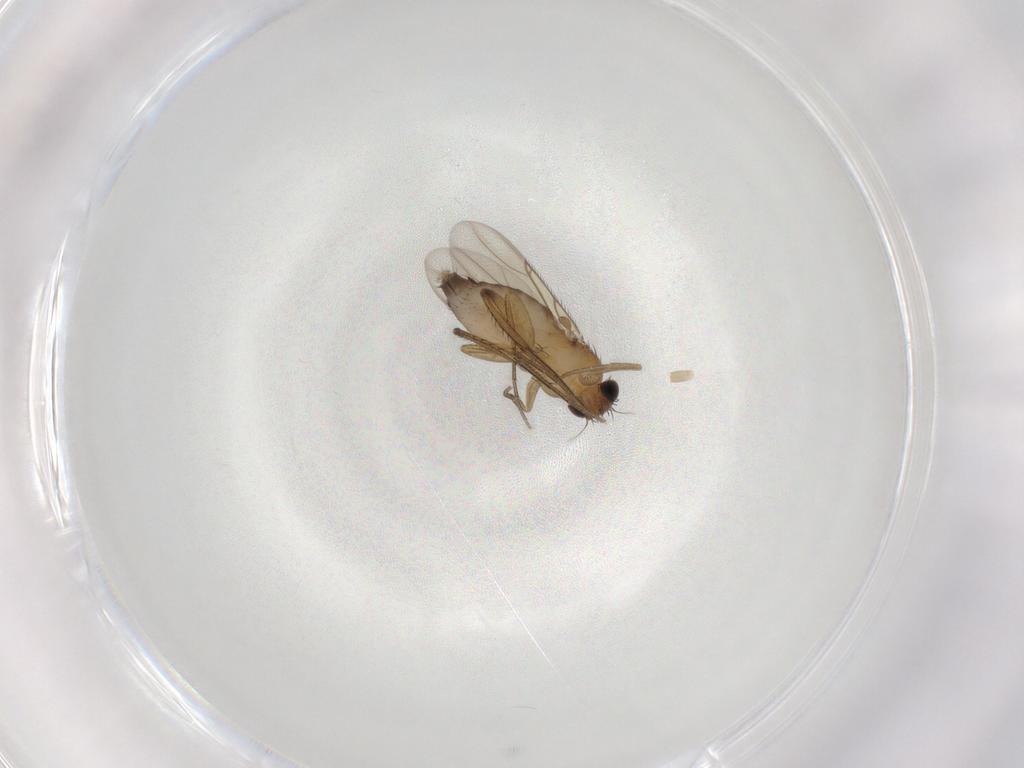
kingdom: Animalia
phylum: Arthropoda
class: Insecta
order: Diptera
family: Phoridae
